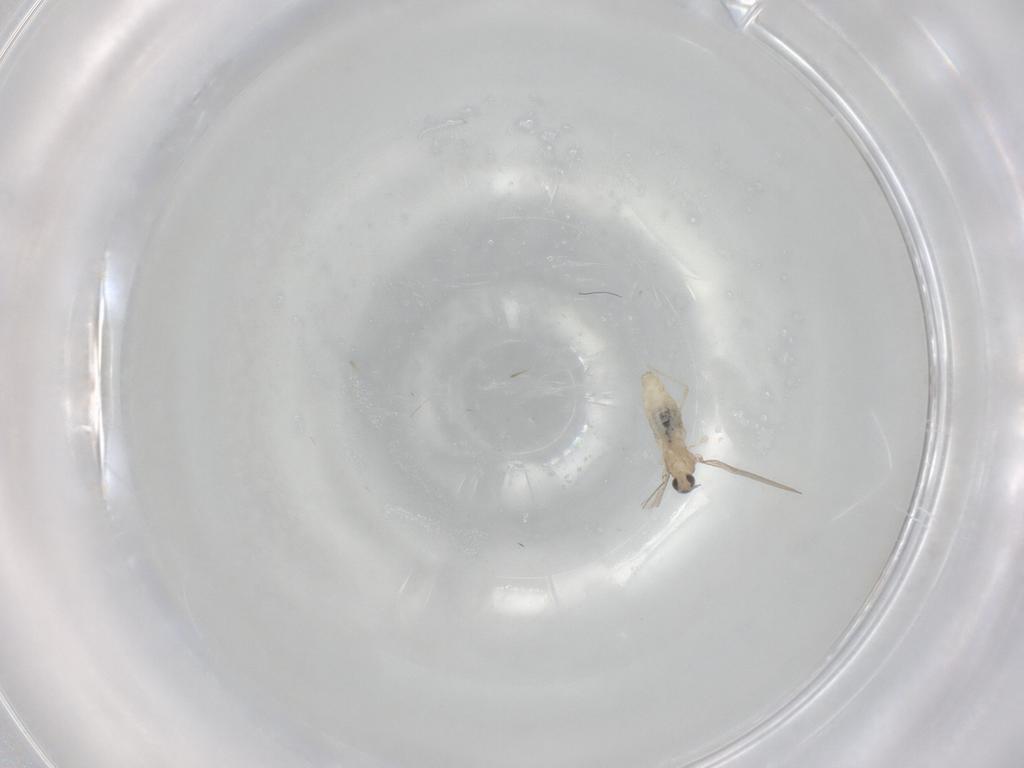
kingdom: Animalia
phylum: Arthropoda
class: Insecta
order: Diptera
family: Cecidomyiidae
